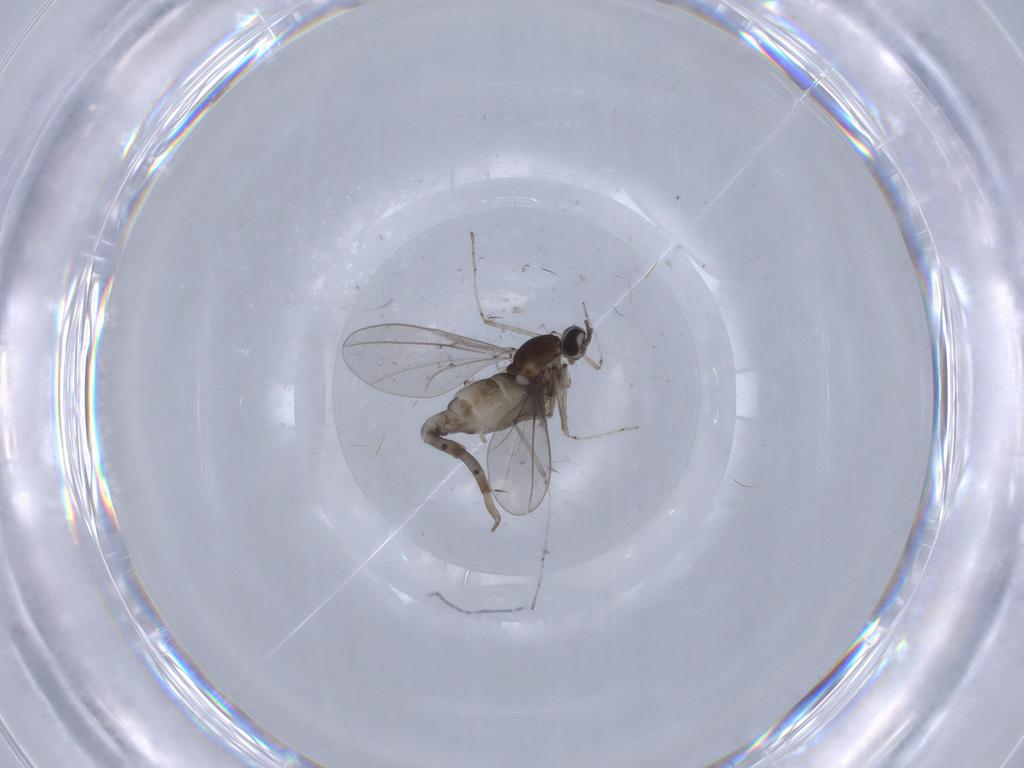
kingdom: Animalia
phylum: Arthropoda
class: Insecta
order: Diptera
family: Cecidomyiidae
